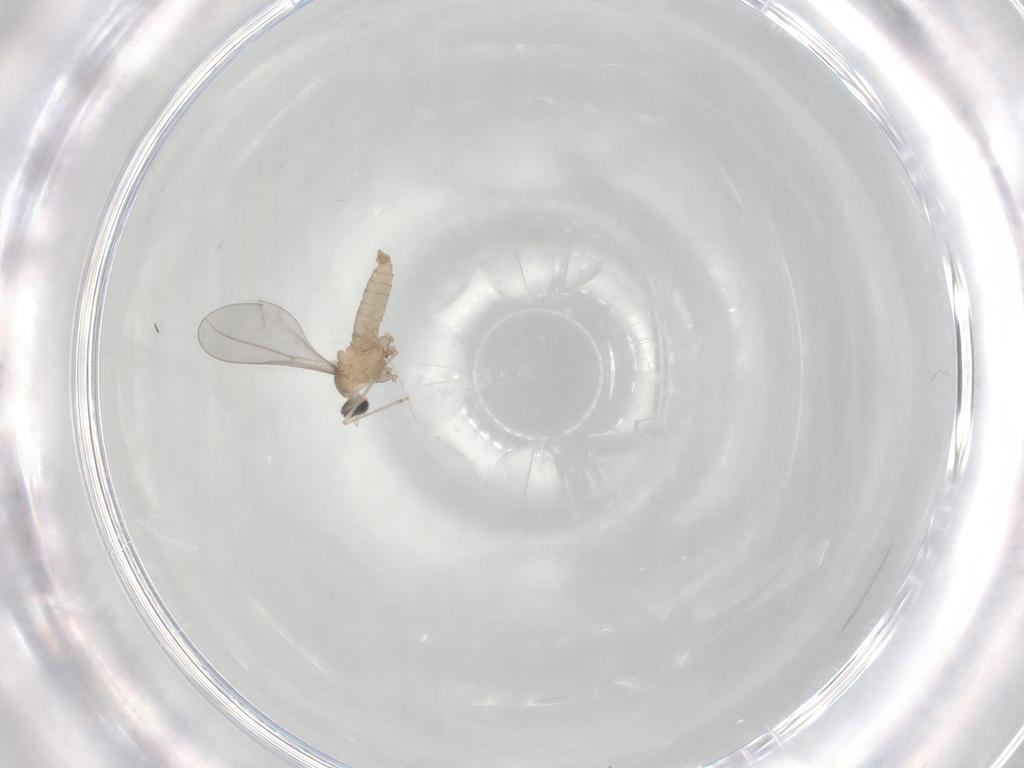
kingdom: Animalia
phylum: Arthropoda
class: Insecta
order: Diptera
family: Cecidomyiidae
